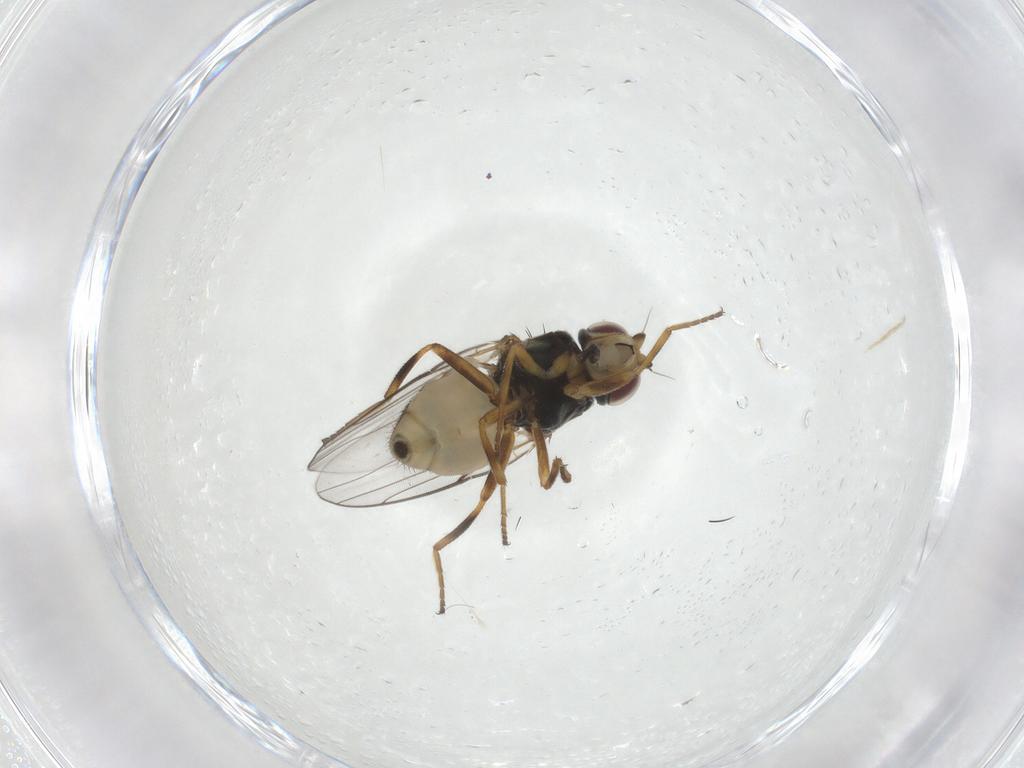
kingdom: Animalia
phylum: Arthropoda
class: Insecta
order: Diptera
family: Chloropidae
